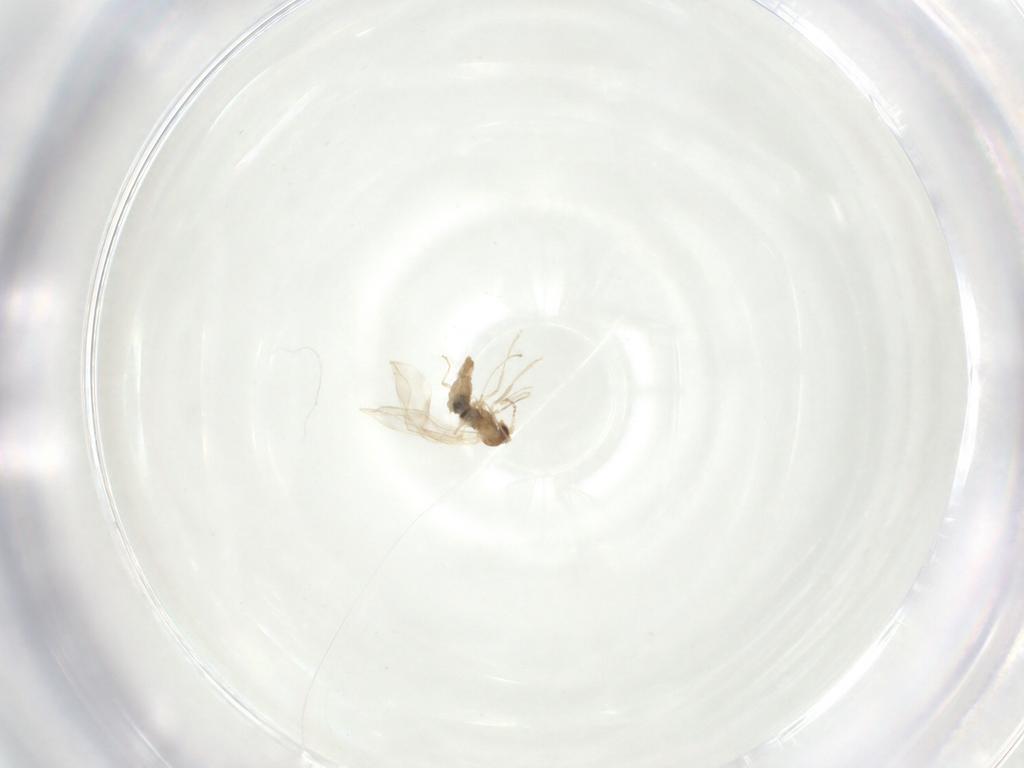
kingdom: Animalia
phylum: Arthropoda
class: Insecta
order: Diptera
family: Cecidomyiidae
